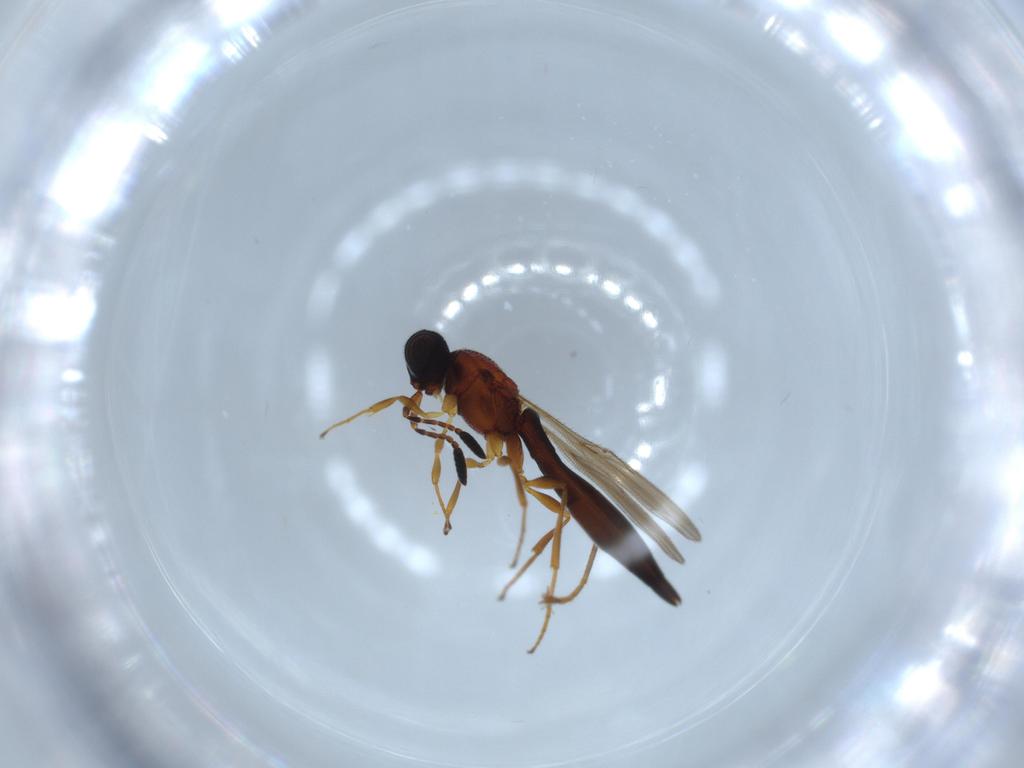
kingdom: Animalia
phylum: Arthropoda
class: Insecta
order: Hymenoptera
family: Formicidae
